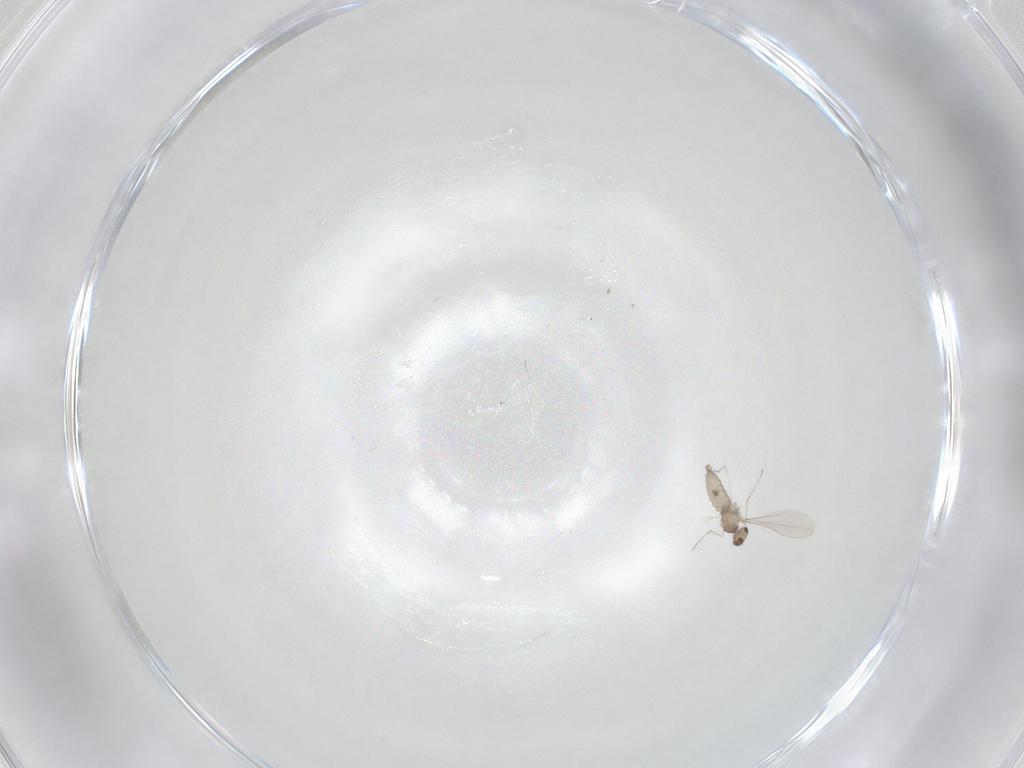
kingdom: Animalia
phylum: Arthropoda
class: Insecta
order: Diptera
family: Cecidomyiidae
